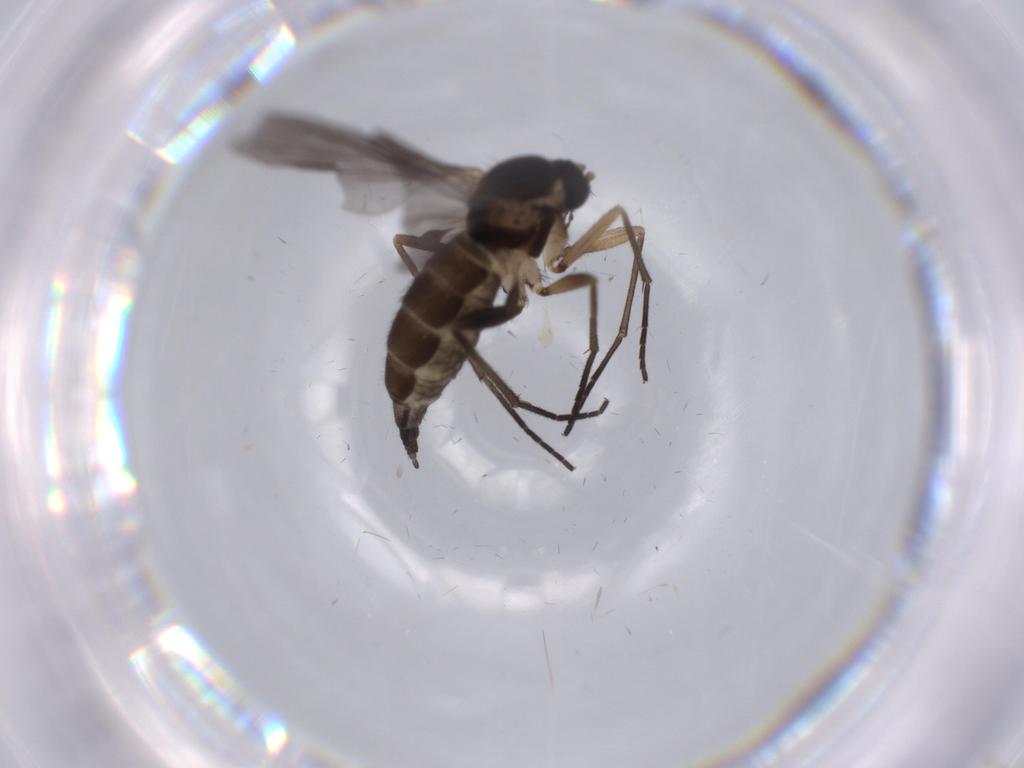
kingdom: Animalia
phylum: Arthropoda
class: Insecta
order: Diptera
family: Sciaridae
